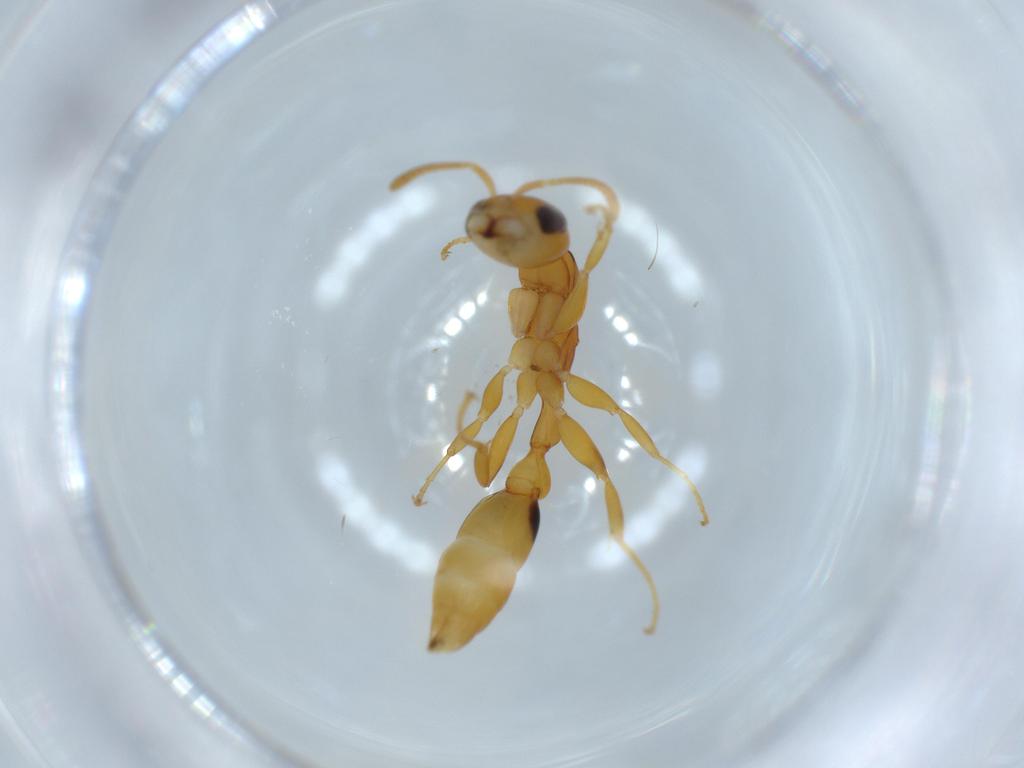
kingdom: Animalia
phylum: Arthropoda
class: Insecta
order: Hymenoptera
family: Formicidae
